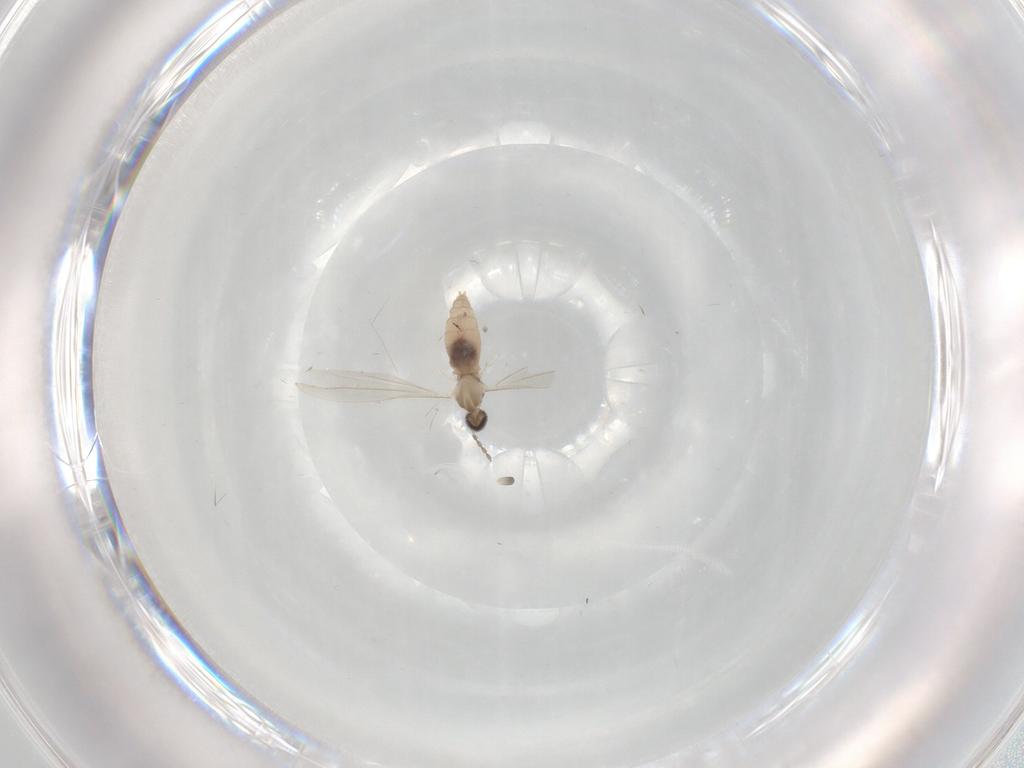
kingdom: Animalia
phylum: Arthropoda
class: Insecta
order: Diptera
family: Cecidomyiidae
